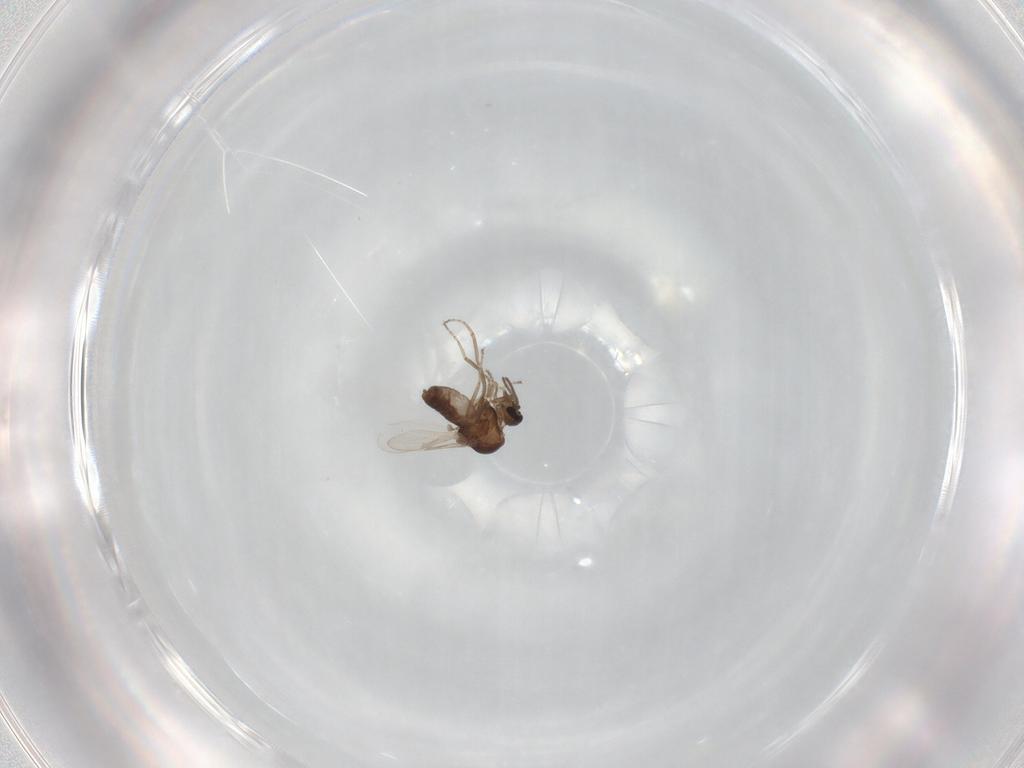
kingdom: Animalia
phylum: Arthropoda
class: Insecta
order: Diptera
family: Ceratopogonidae
